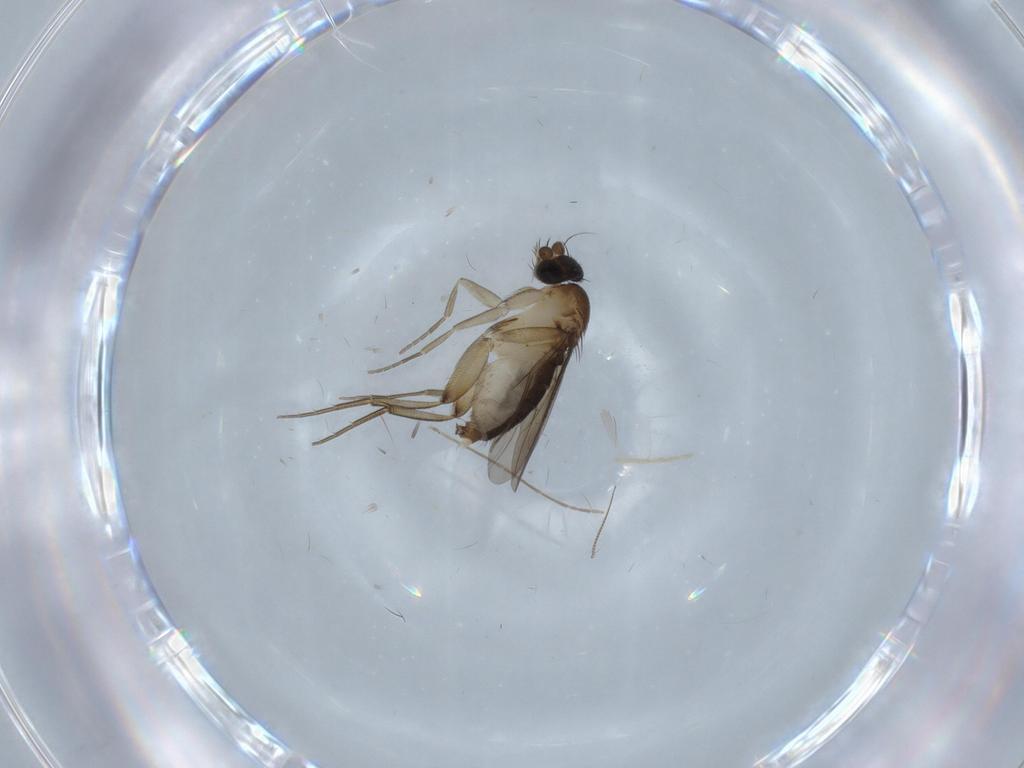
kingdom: Animalia
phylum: Arthropoda
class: Insecta
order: Diptera
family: Phoridae
